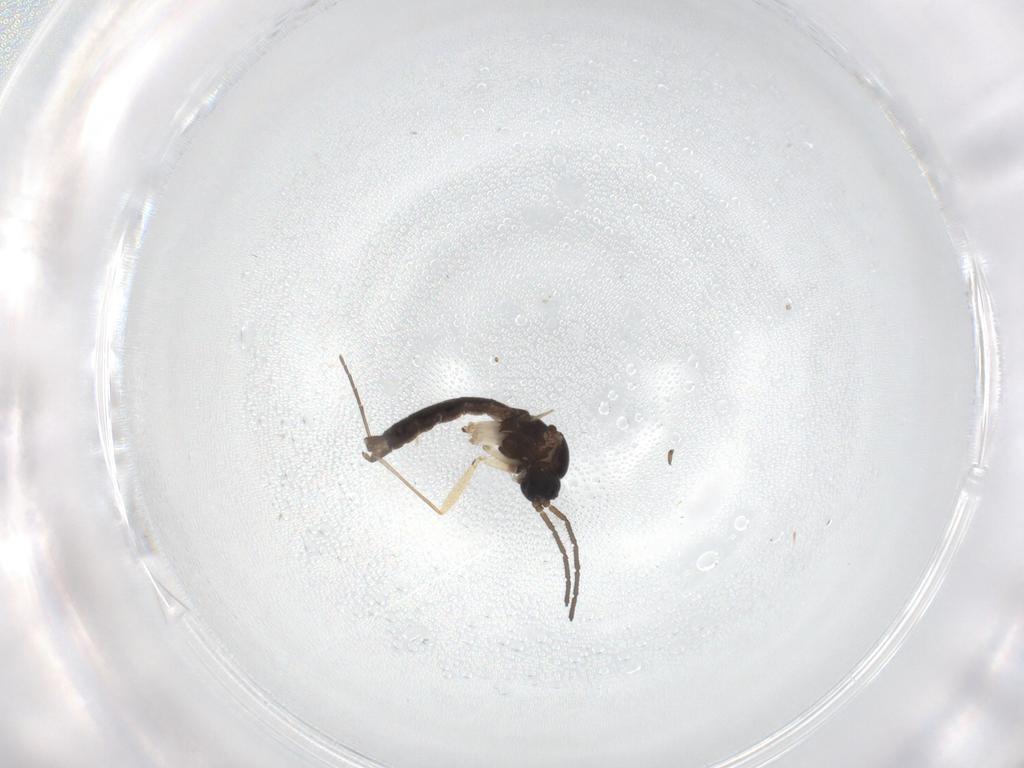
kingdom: Animalia
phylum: Arthropoda
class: Insecta
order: Diptera
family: Sciaridae
